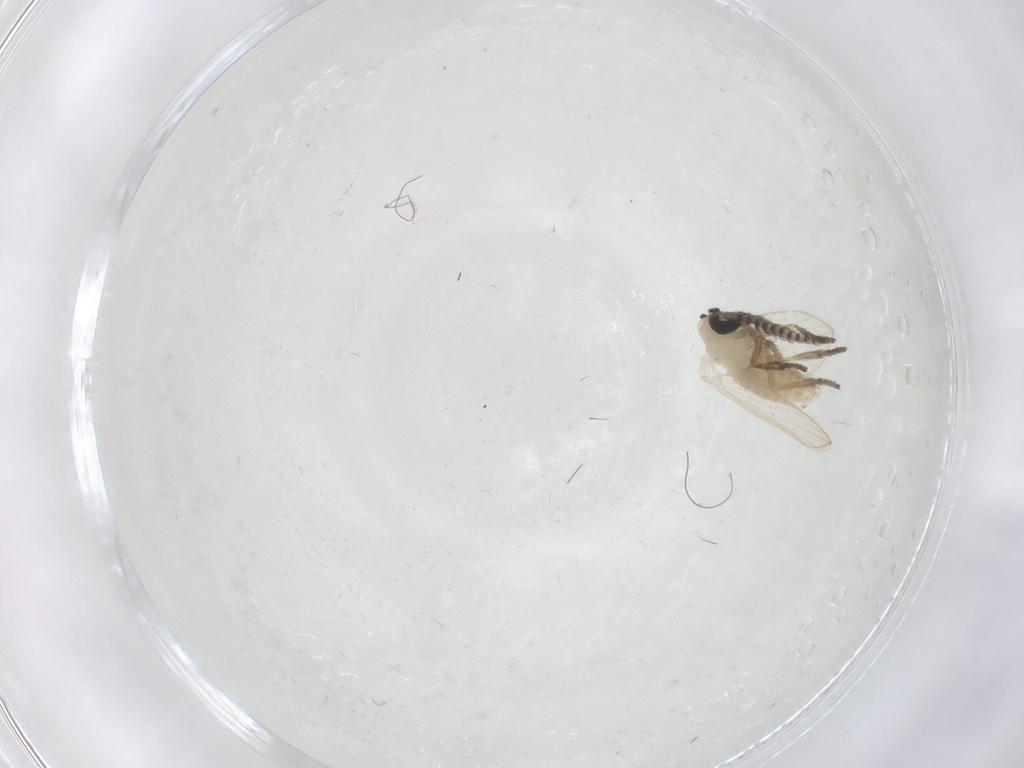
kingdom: Animalia
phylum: Arthropoda
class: Insecta
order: Diptera
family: Psychodidae
